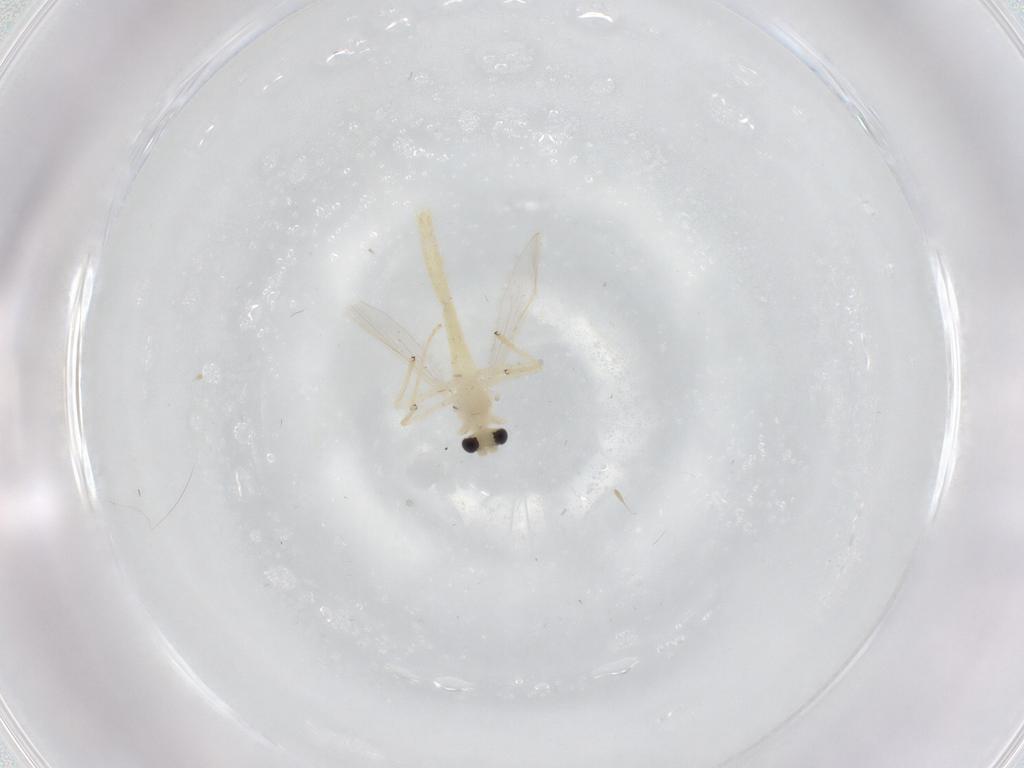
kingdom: Animalia
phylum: Arthropoda
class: Insecta
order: Diptera
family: Chironomidae
